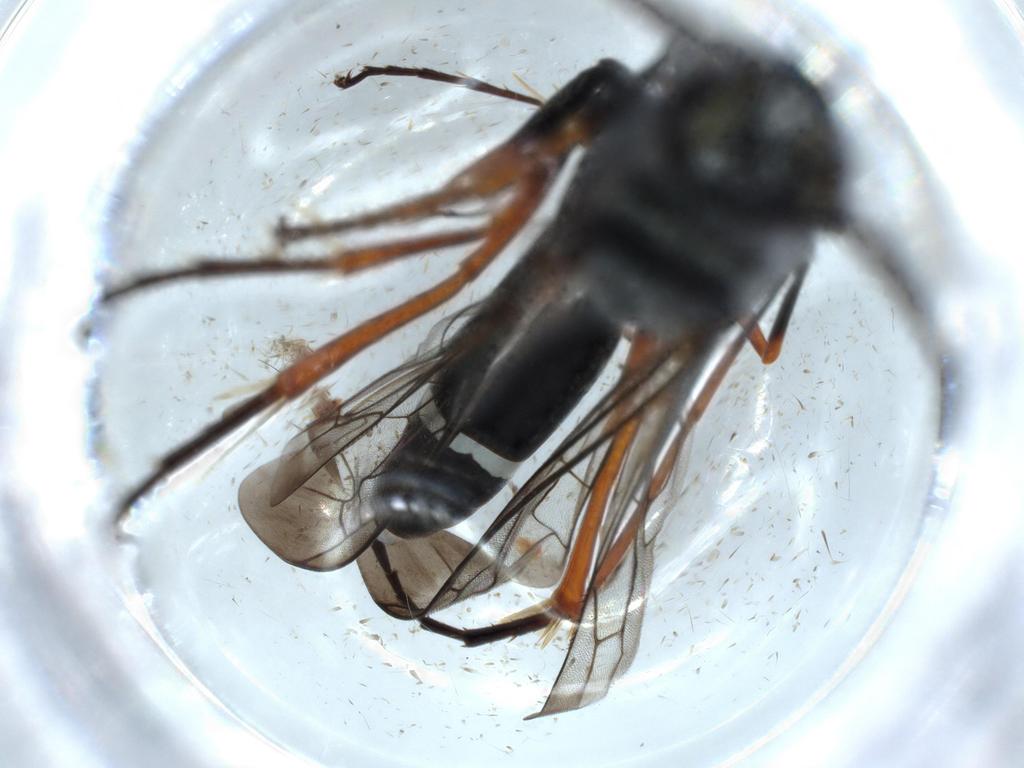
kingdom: Animalia
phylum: Arthropoda
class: Insecta
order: Hymenoptera
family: Pompilidae
